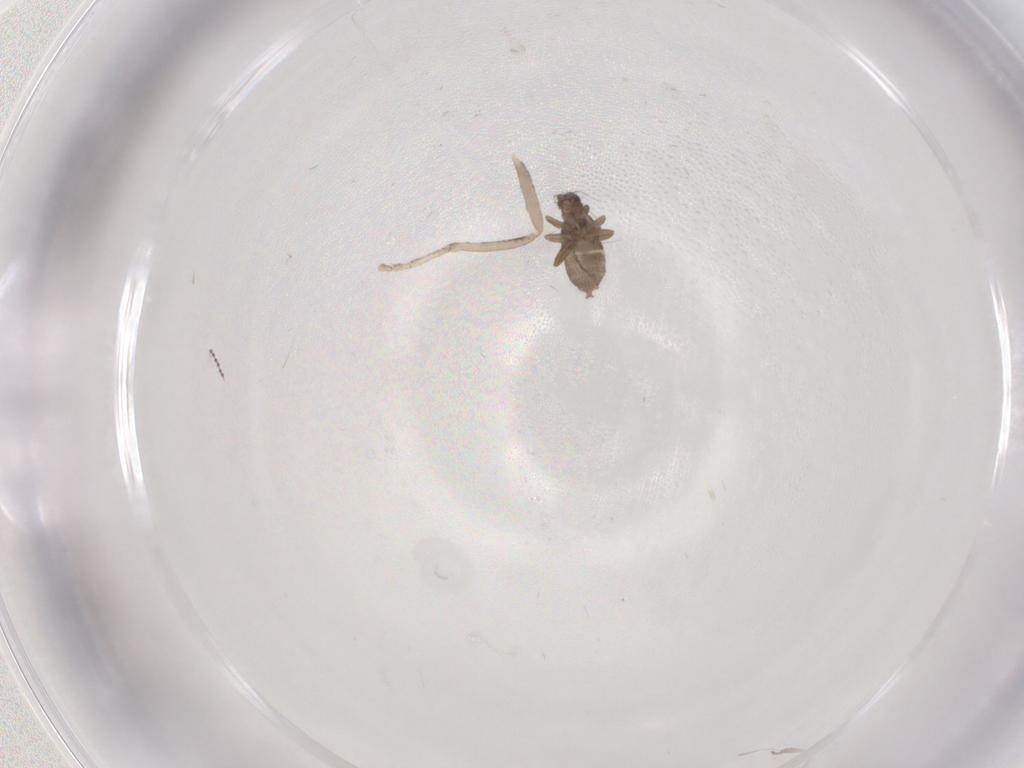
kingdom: Animalia
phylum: Arthropoda
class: Insecta
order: Diptera
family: Cecidomyiidae
